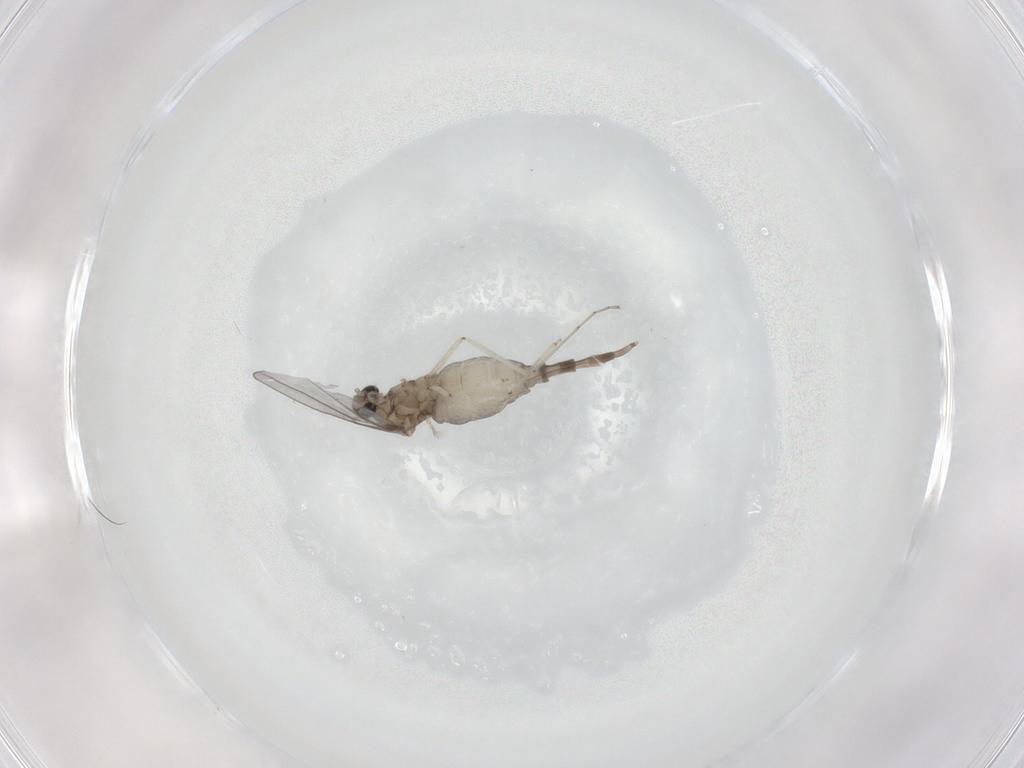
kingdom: Animalia
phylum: Arthropoda
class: Insecta
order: Diptera
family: Cecidomyiidae
